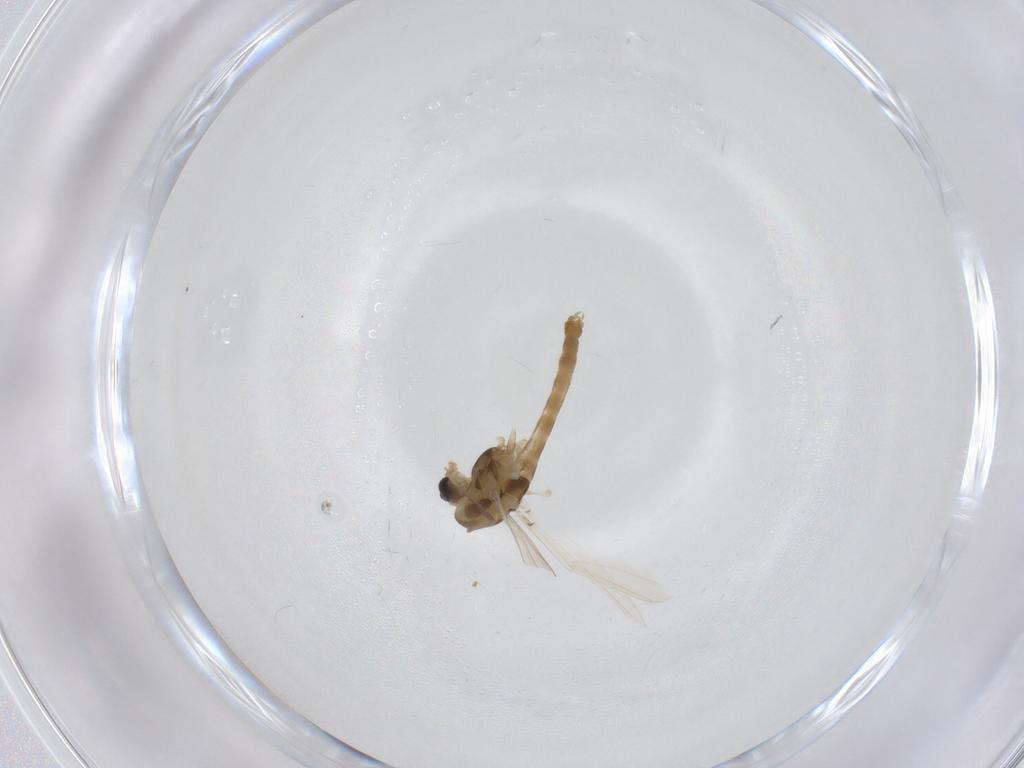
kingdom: Animalia
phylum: Arthropoda
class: Insecta
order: Diptera
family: Chironomidae
